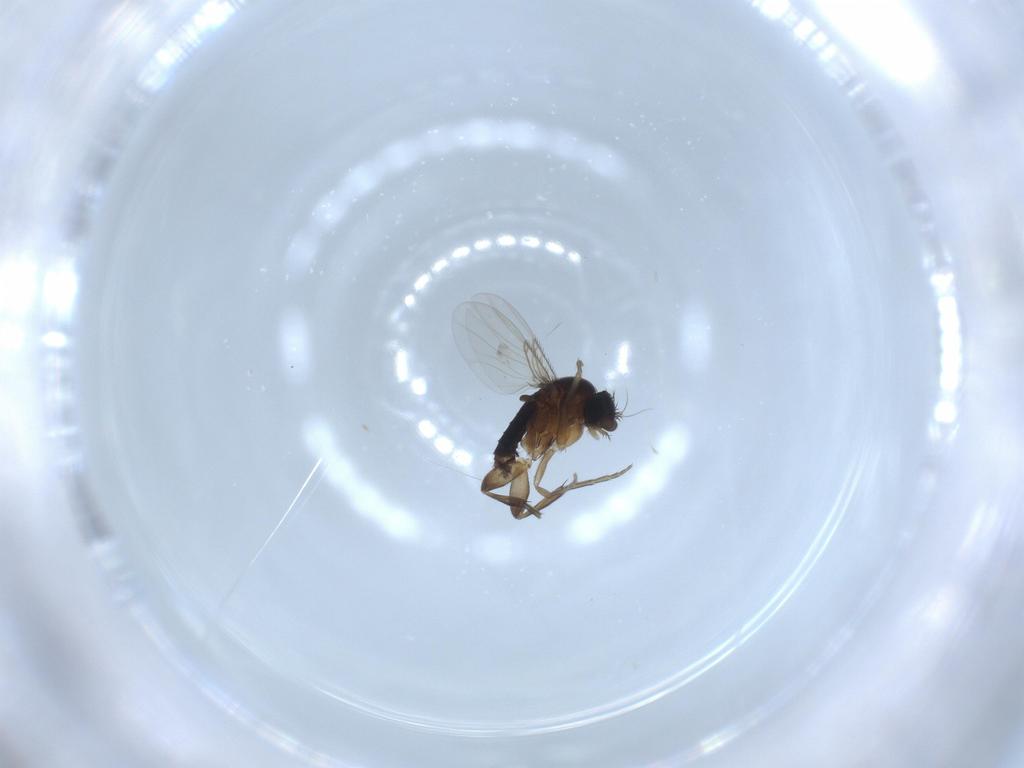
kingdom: Animalia
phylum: Arthropoda
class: Insecta
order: Diptera
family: Phoridae
